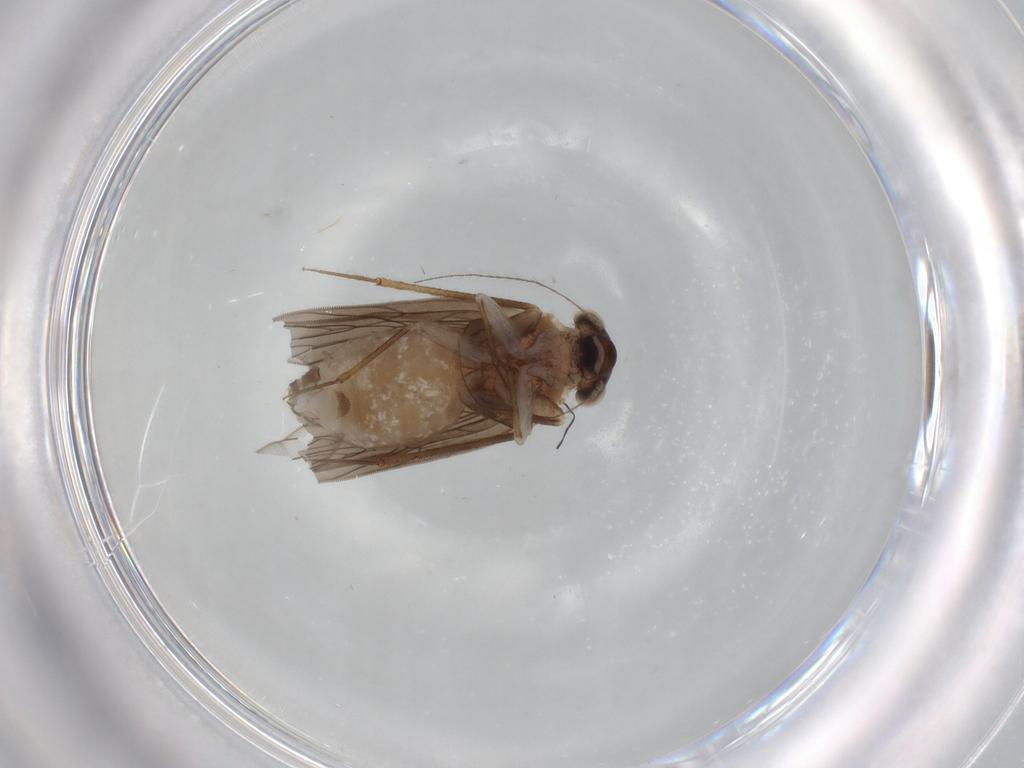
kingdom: Animalia
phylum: Arthropoda
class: Insecta
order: Psocodea
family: Lepidopsocidae
